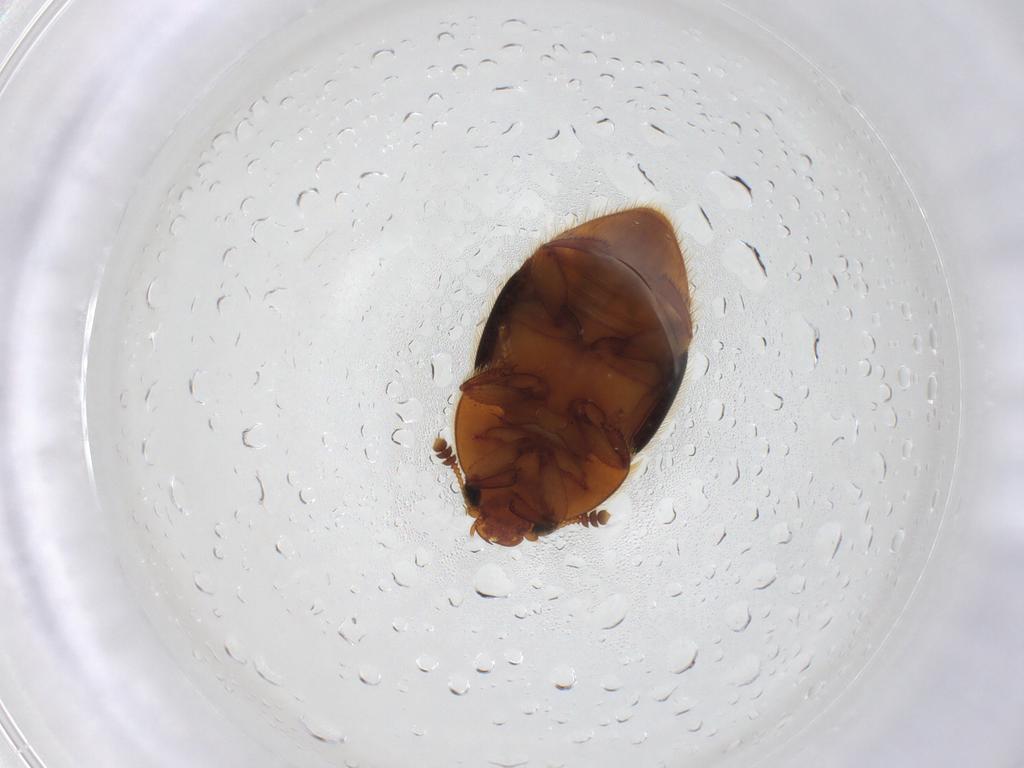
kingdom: Animalia
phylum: Arthropoda
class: Insecta
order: Coleoptera
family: Nitidulidae
